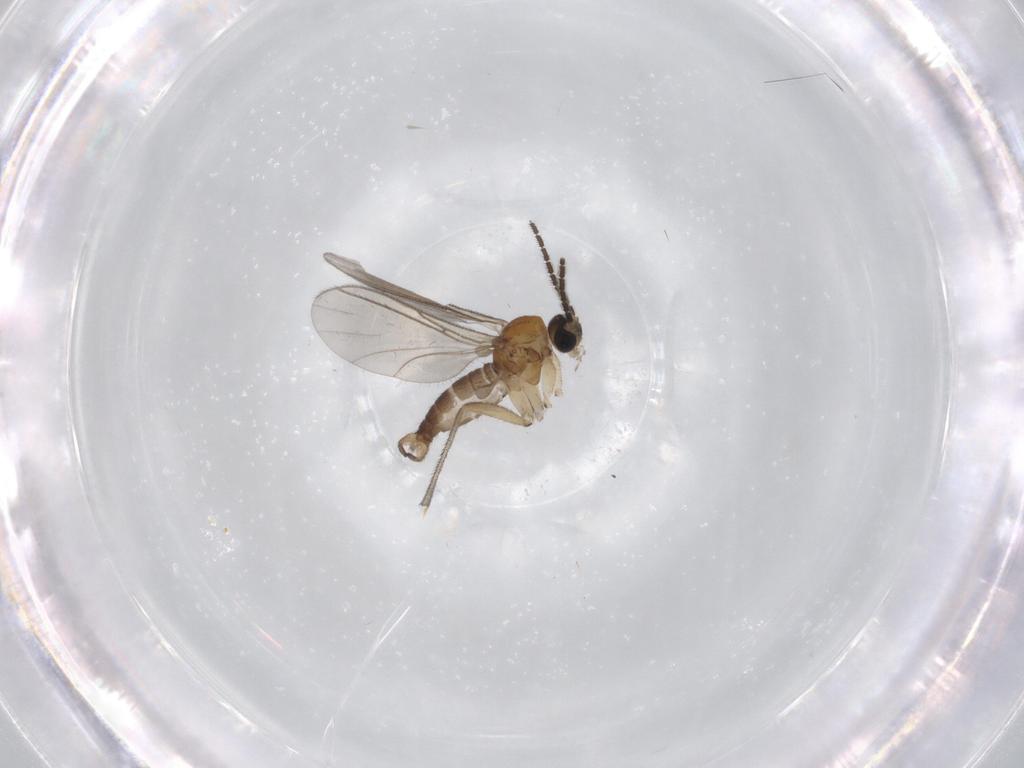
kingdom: Animalia
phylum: Arthropoda
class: Insecta
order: Diptera
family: Sciaridae
